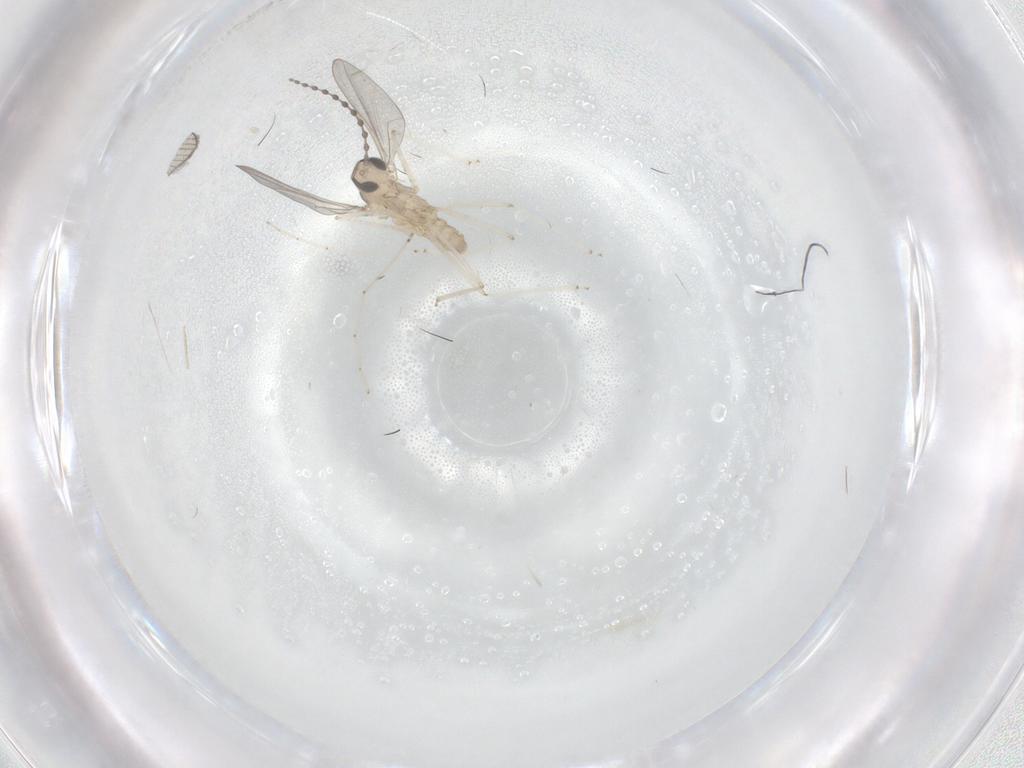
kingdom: Animalia
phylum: Arthropoda
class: Insecta
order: Diptera
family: Cecidomyiidae
